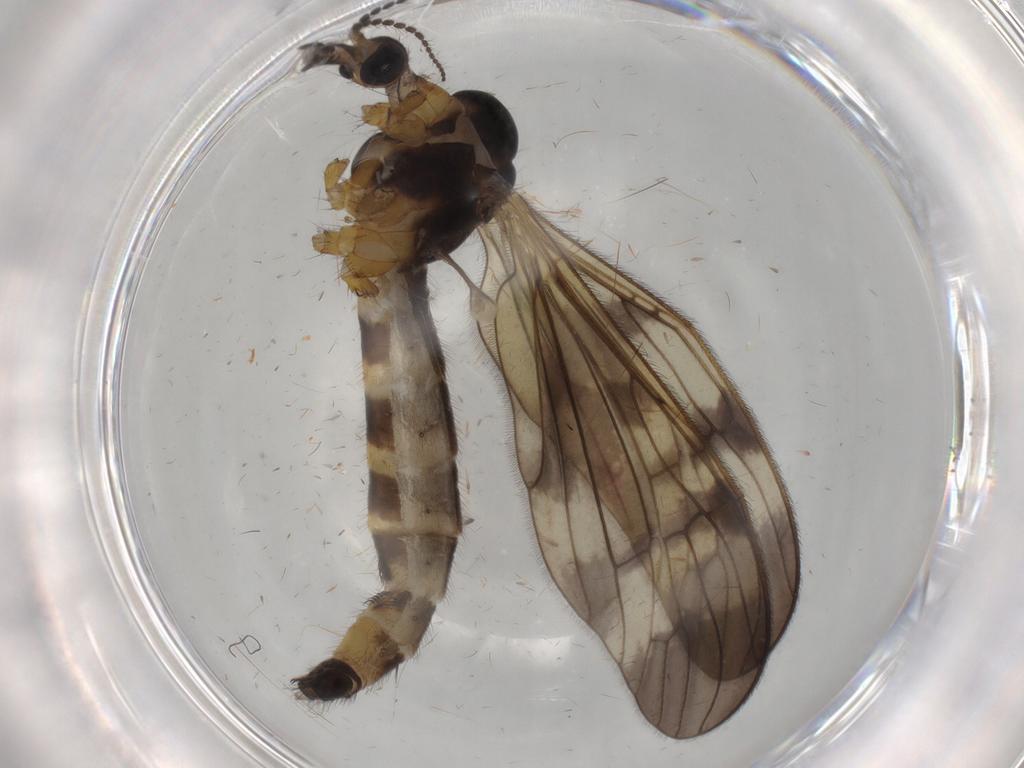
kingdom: Animalia
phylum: Arthropoda
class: Insecta
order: Diptera
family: Limoniidae
